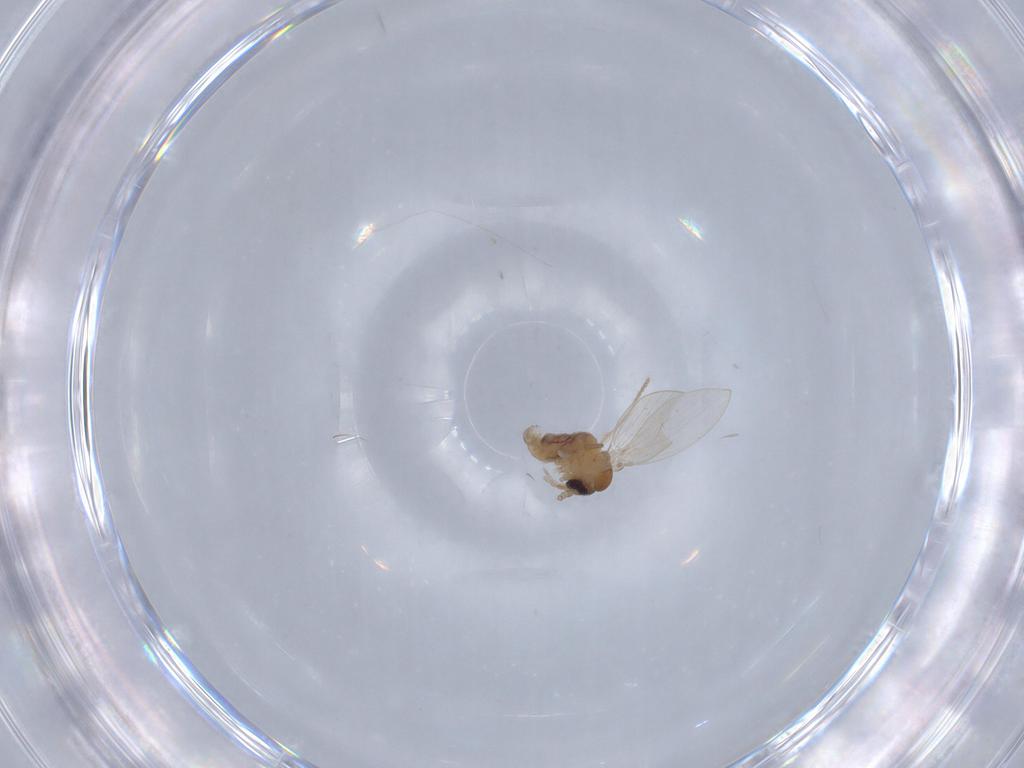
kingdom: Animalia
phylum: Arthropoda
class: Insecta
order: Diptera
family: Psychodidae
